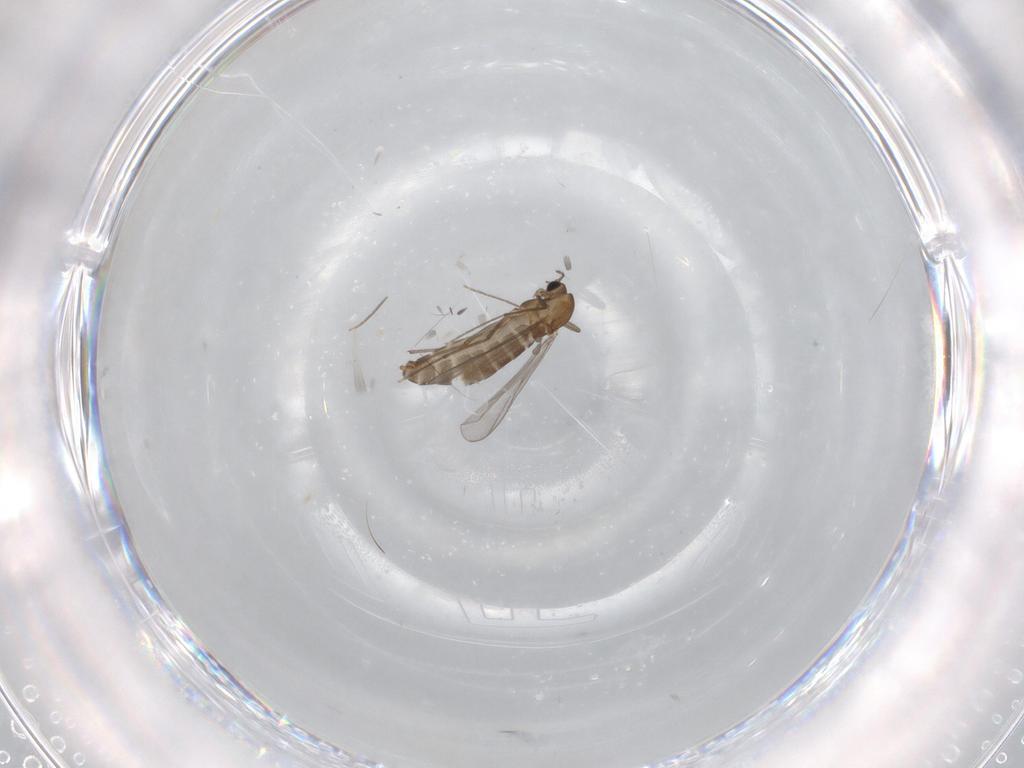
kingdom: Animalia
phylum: Arthropoda
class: Insecta
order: Diptera
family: Chironomidae
